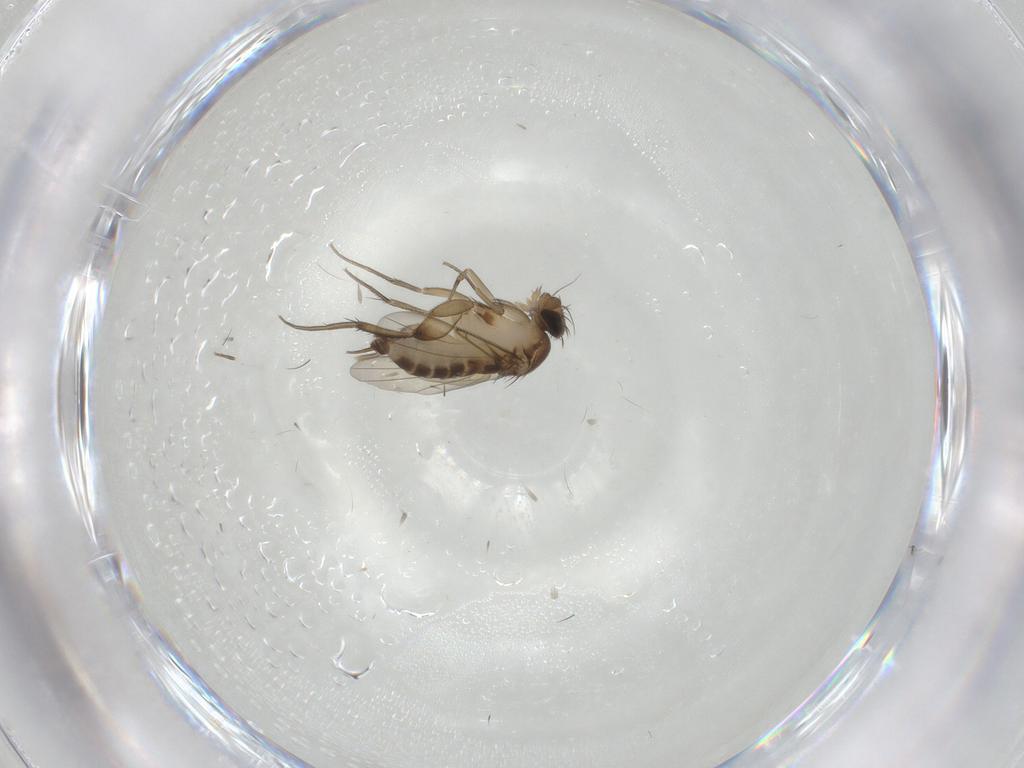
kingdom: Animalia
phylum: Arthropoda
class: Insecta
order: Diptera
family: Phoridae
